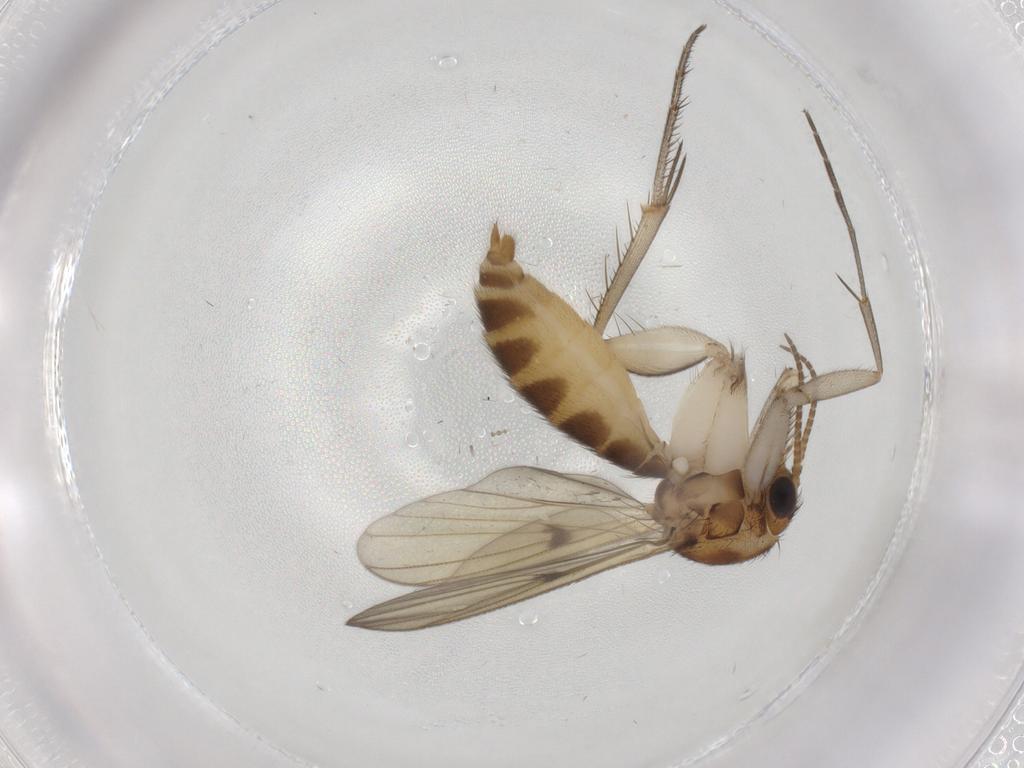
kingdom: Animalia
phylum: Arthropoda
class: Insecta
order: Diptera
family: Phoridae
